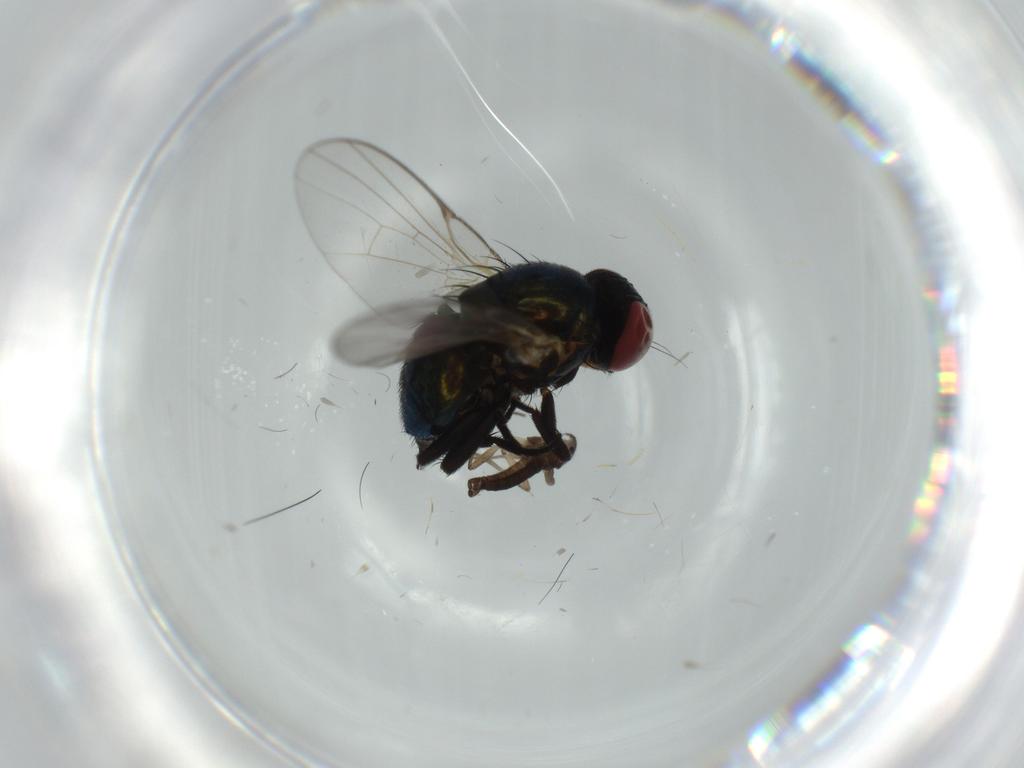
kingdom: Animalia
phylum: Arthropoda
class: Insecta
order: Diptera
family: Sciaridae
